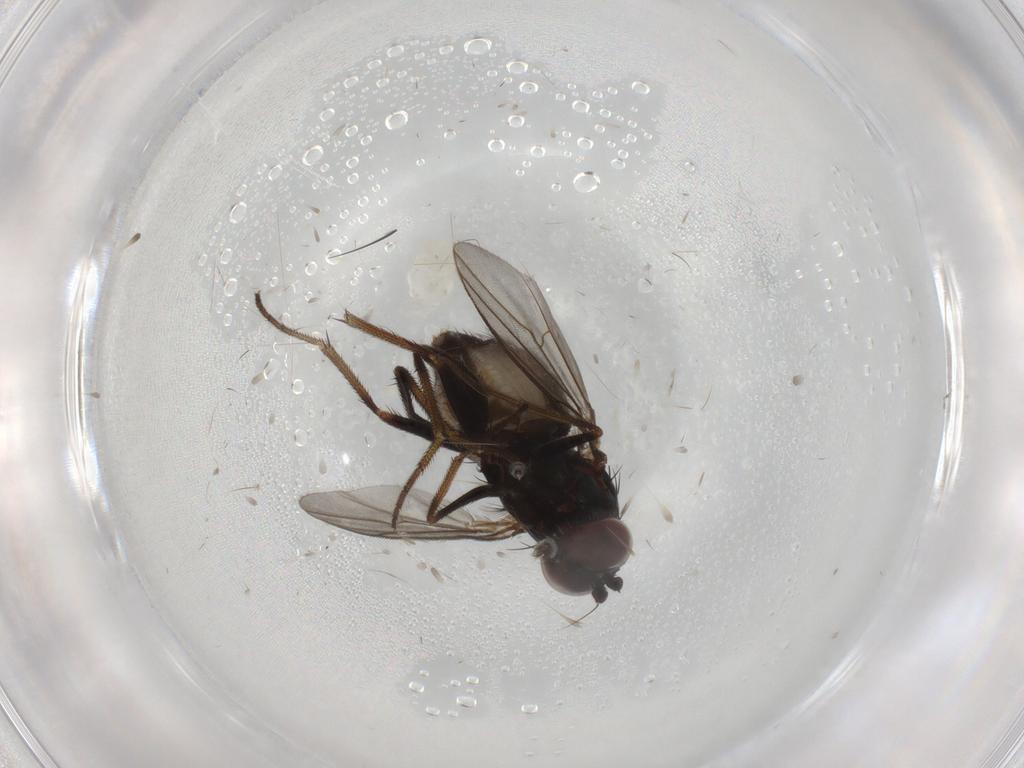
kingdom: Animalia
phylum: Arthropoda
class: Insecta
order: Diptera
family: Dolichopodidae
